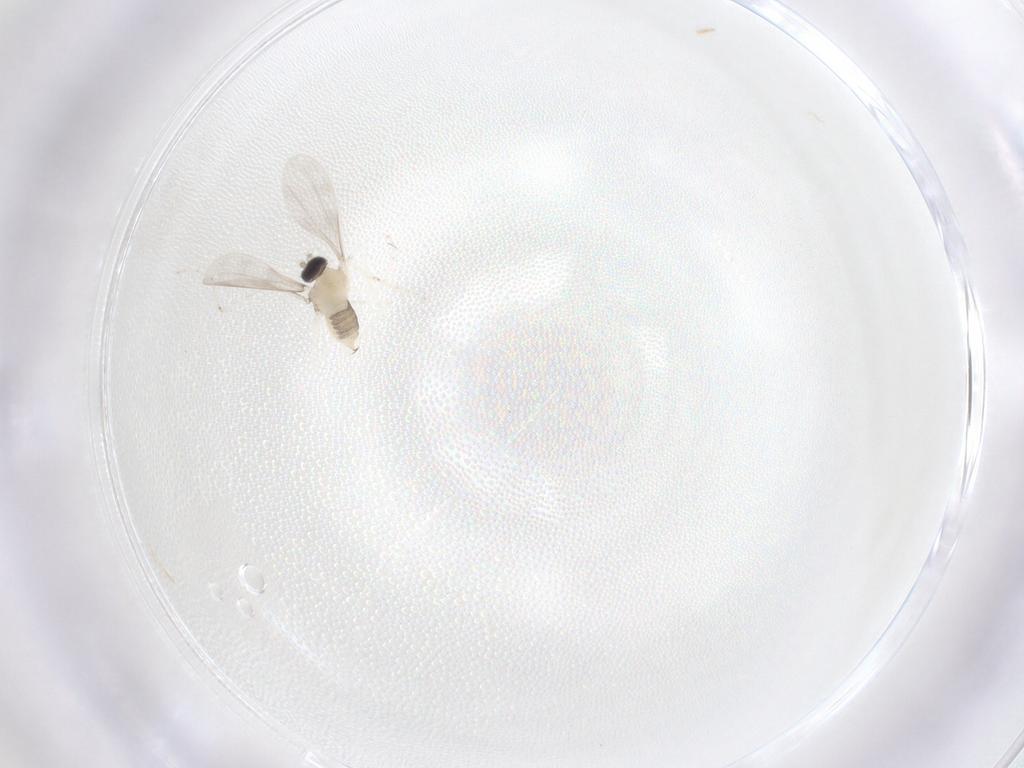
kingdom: Animalia
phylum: Arthropoda
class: Insecta
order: Diptera
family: Cecidomyiidae
